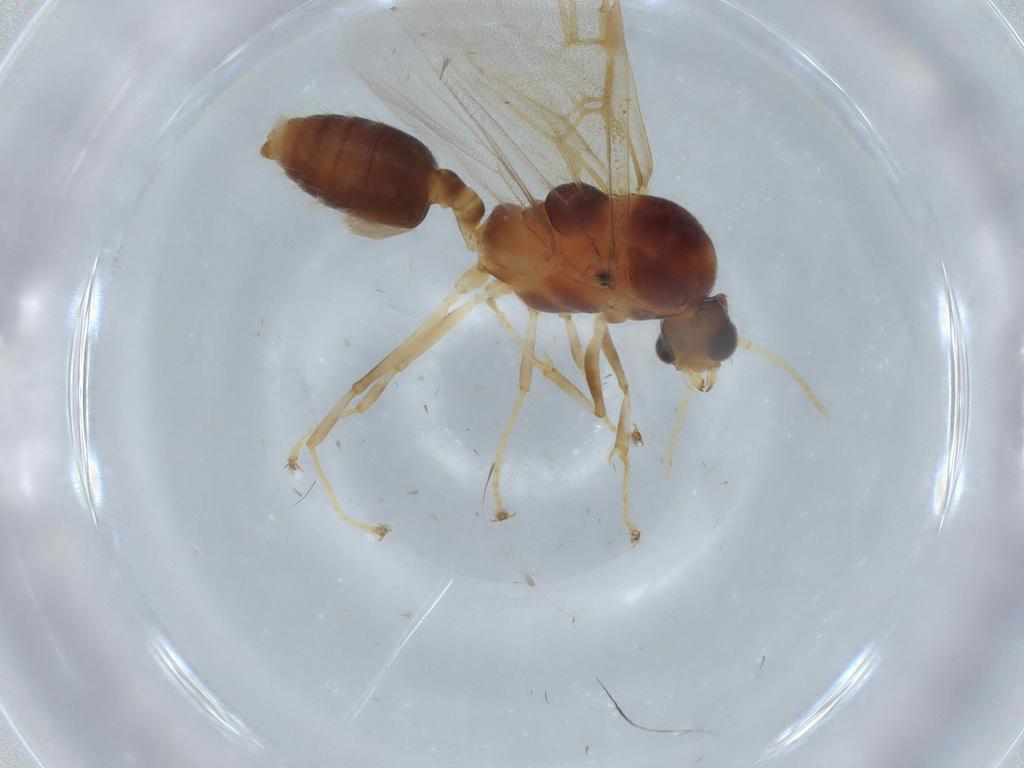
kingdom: Animalia
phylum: Arthropoda
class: Insecta
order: Hymenoptera
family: Formicidae
